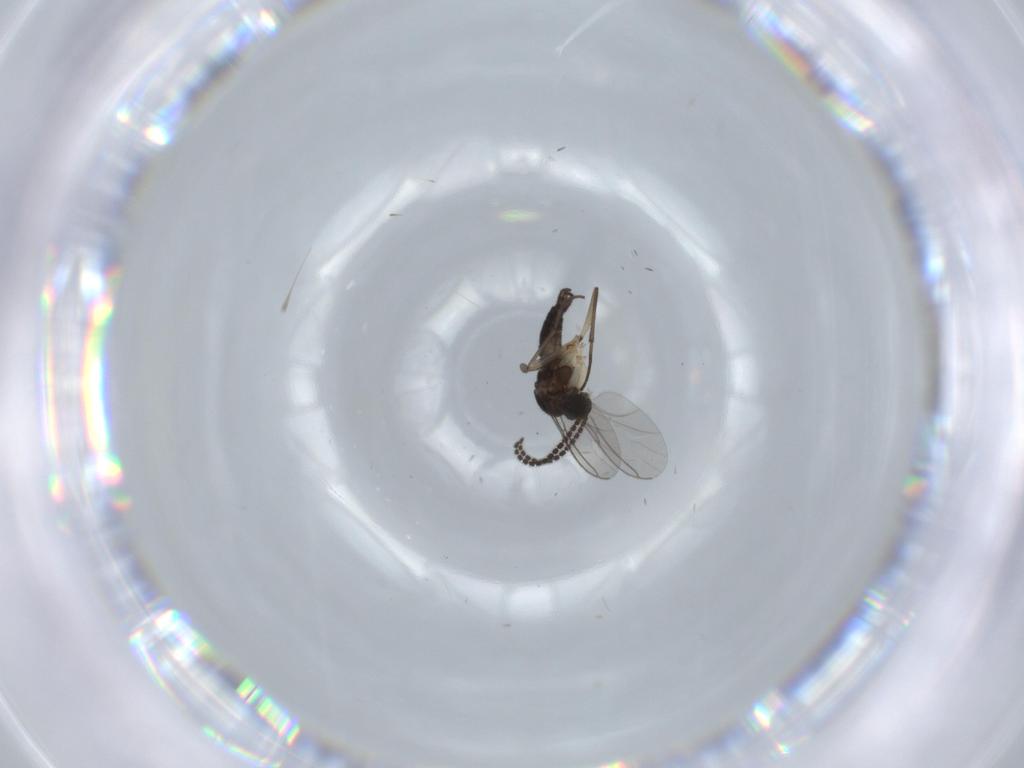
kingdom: Animalia
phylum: Arthropoda
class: Insecta
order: Diptera
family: Sciaridae
